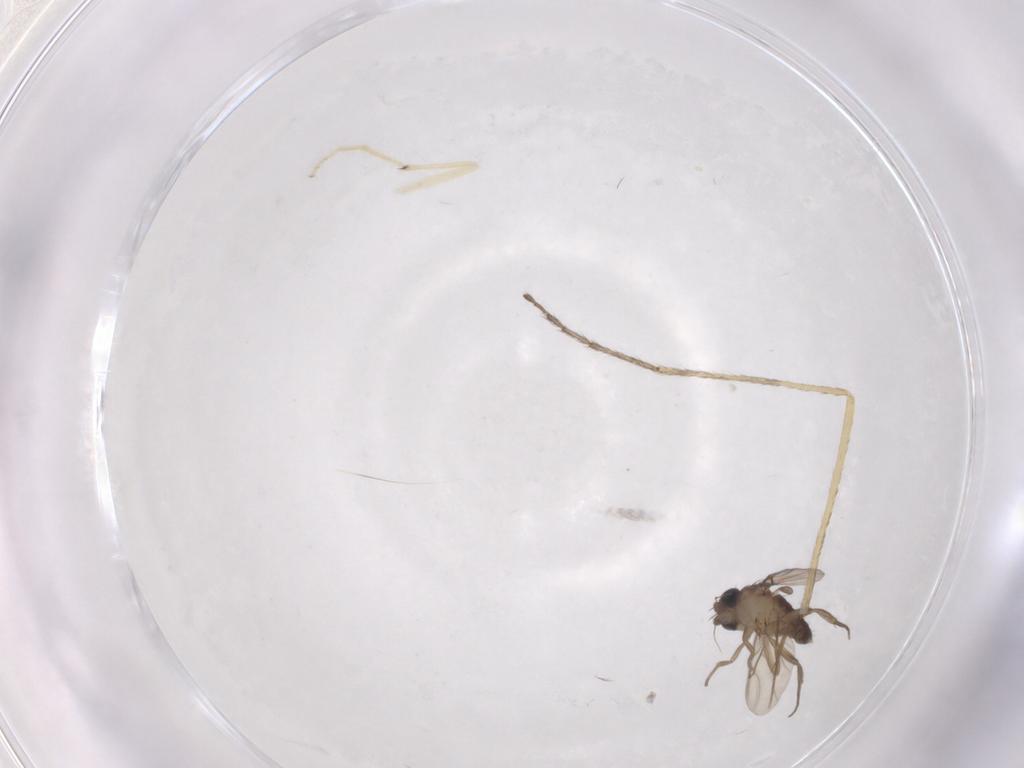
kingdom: Animalia
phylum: Arthropoda
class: Insecta
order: Diptera
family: Phoridae
